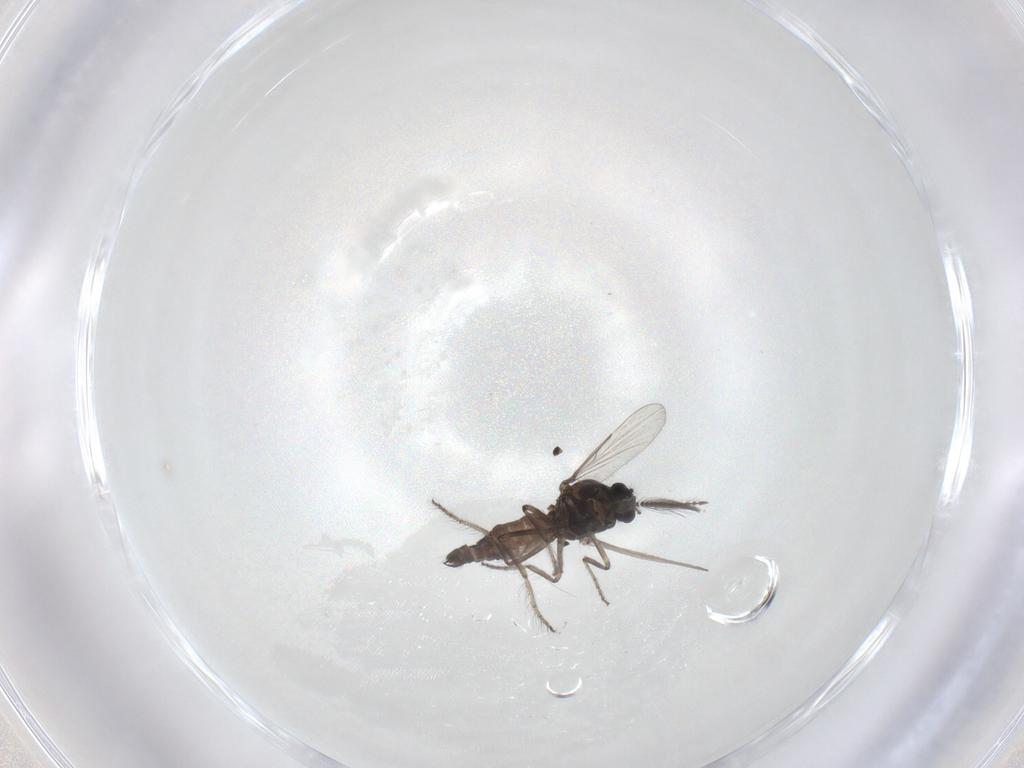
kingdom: Animalia
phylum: Arthropoda
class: Insecta
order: Diptera
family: Ceratopogonidae
